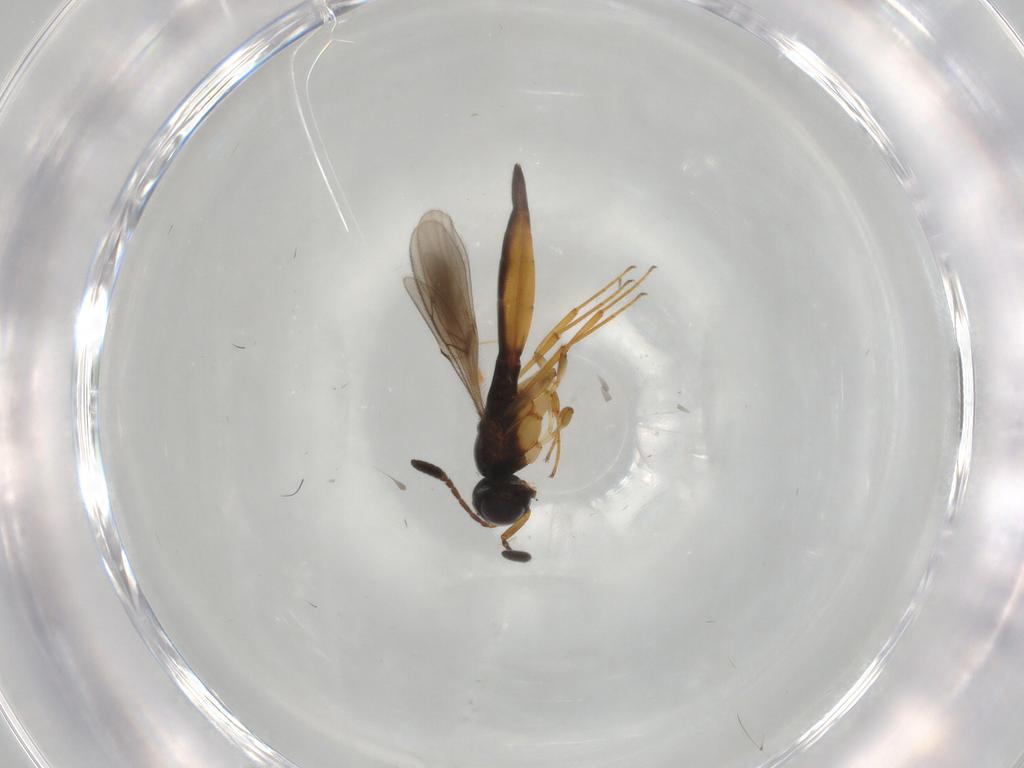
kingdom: Animalia
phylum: Arthropoda
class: Insecta
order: Hymenoptera
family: Scelionidae
